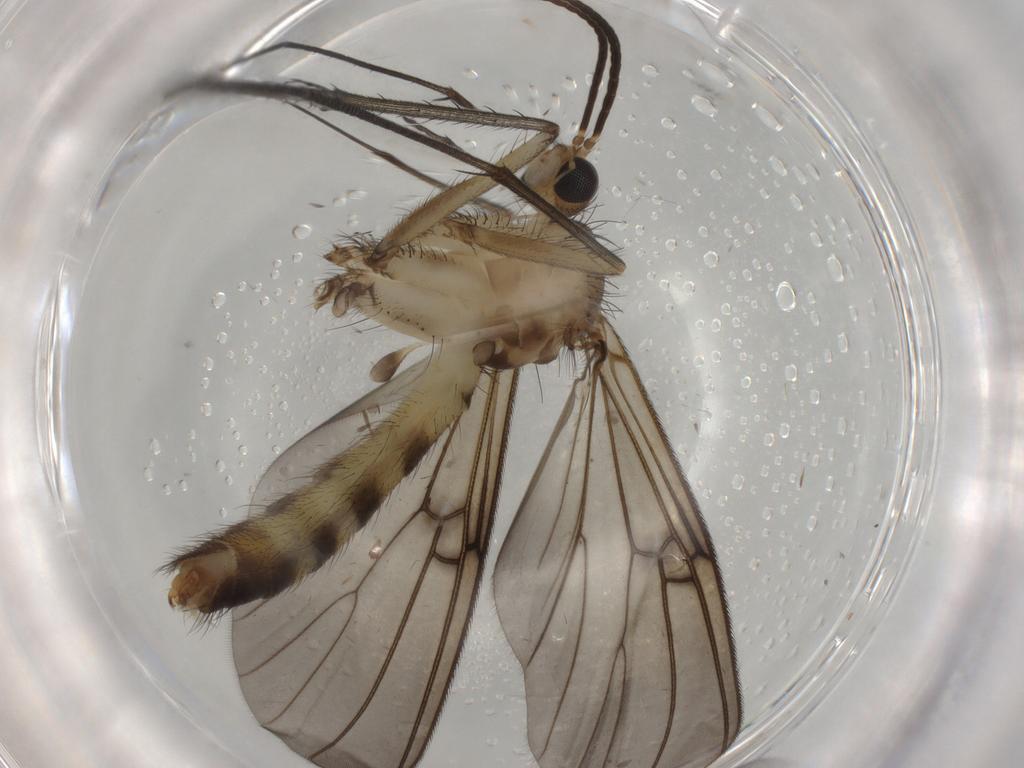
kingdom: Animalia
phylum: Arthropoda
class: Insecta
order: Diptera
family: Mycetophilidae
